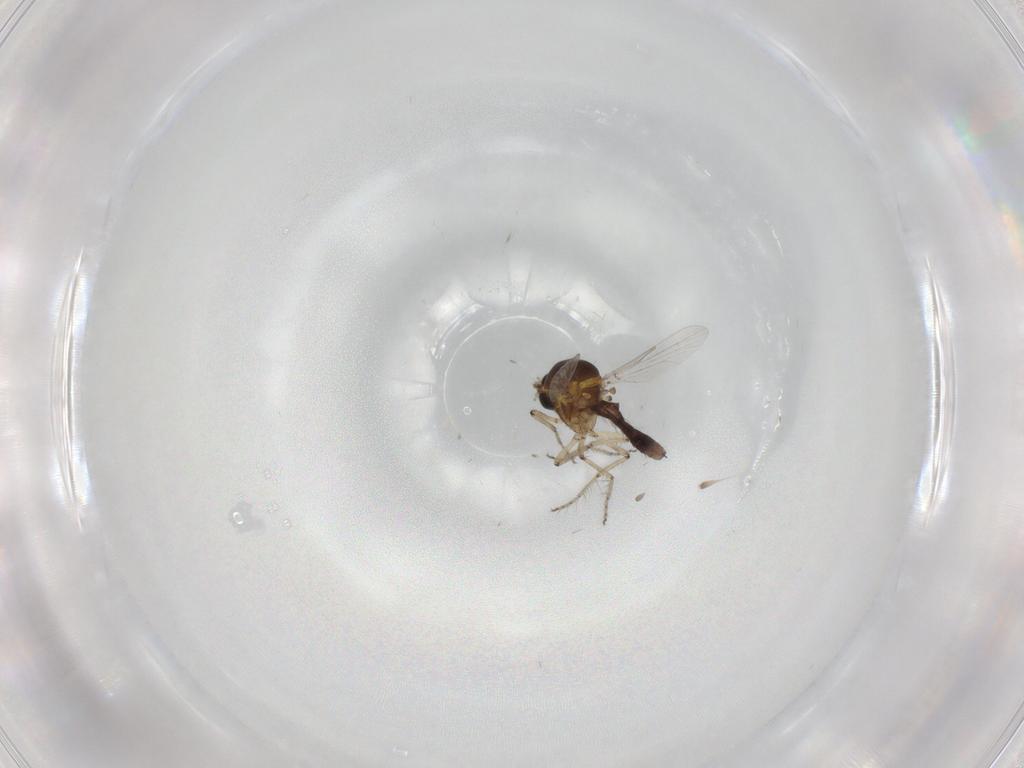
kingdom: Animalia
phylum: Arthropoda
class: Insecta
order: Diptera
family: Ceratopogonidae
